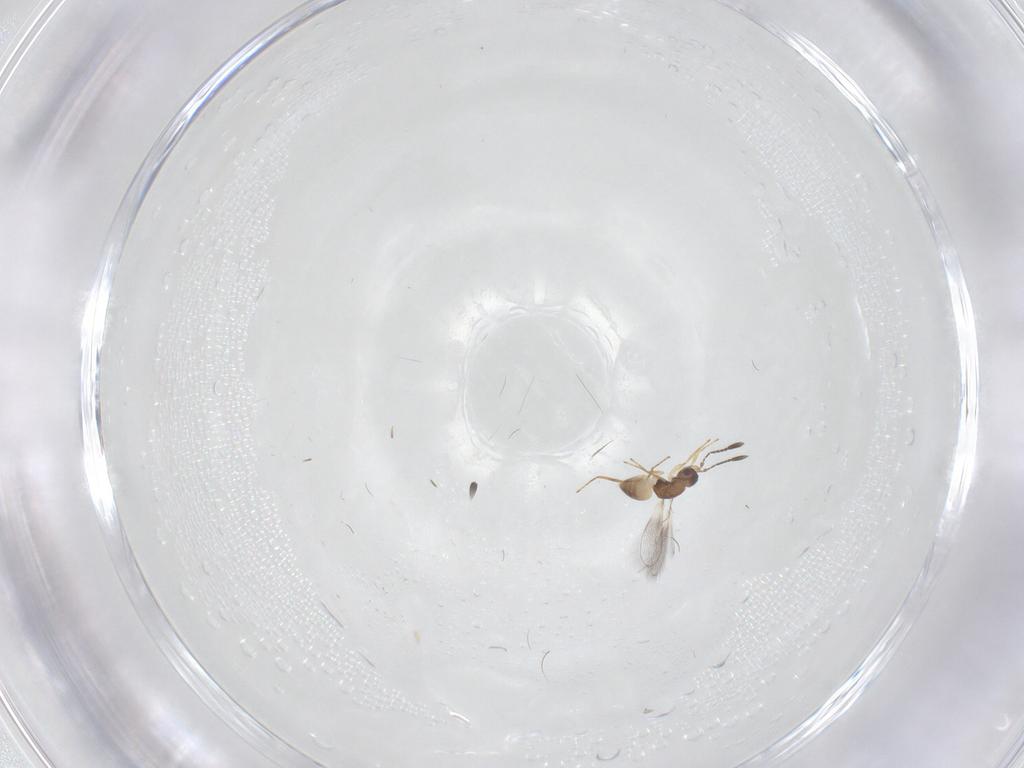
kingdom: Animalia
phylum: Arthropoda
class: Insecta
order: Hymenoptera
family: Mymaridae
